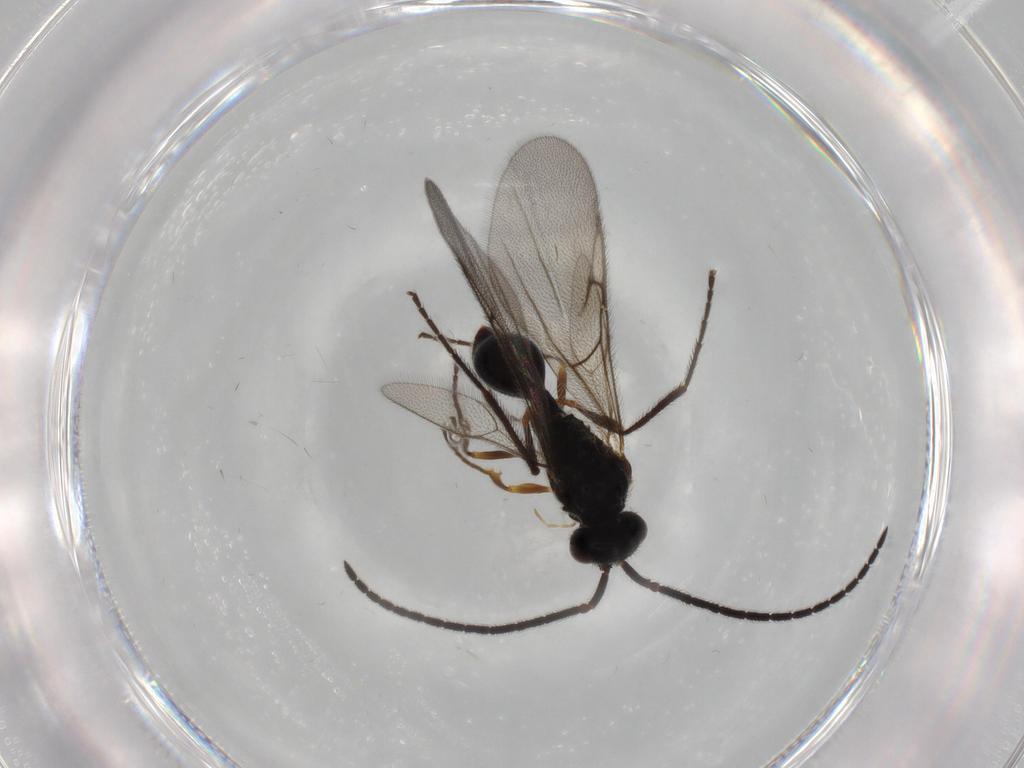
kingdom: Animalia
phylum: Arthropoda
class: Insecta
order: Hymenoptera
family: Diapriidae
